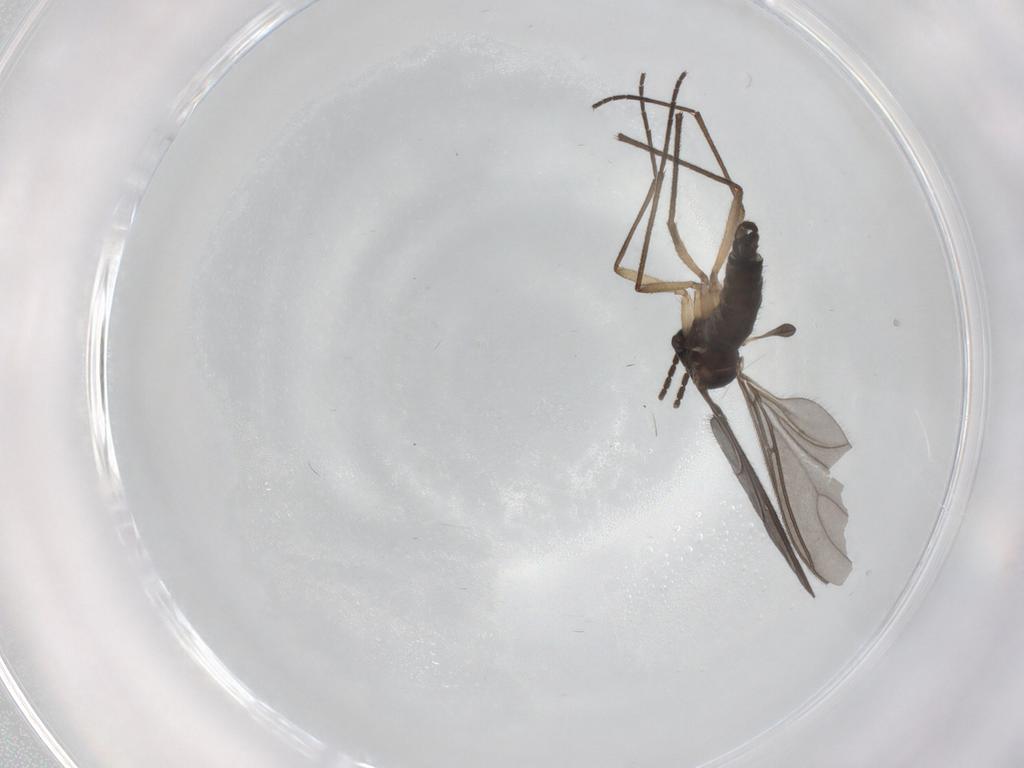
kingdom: Animalia
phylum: Arthropoda
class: Insecta
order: Diptera
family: Sciaridae
